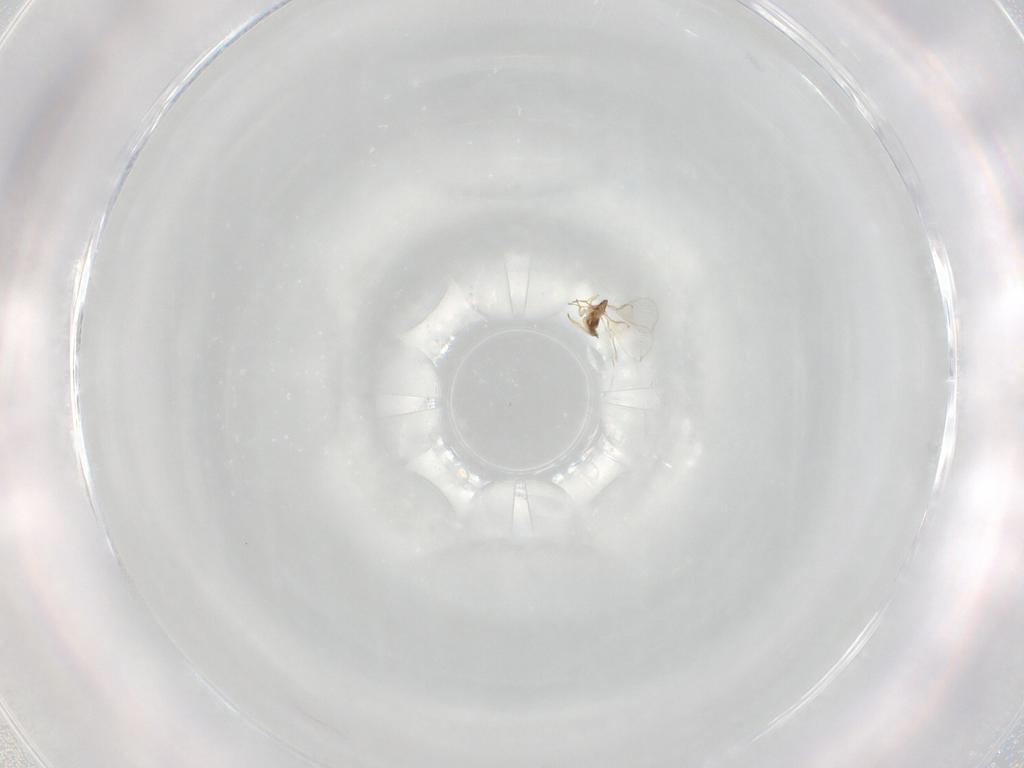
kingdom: Animalia
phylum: Arthropoda
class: Insecta
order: Hymenoptera
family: Trichogrammatidae
